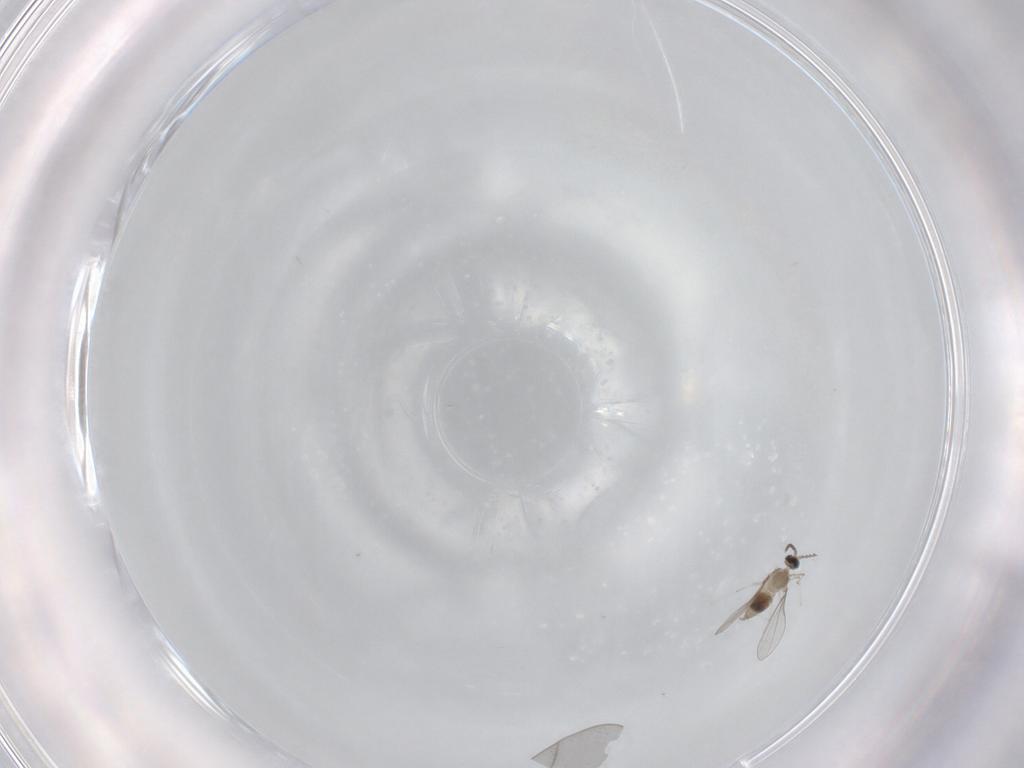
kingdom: Animalia
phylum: Arthropoda
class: Insecta
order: Diptera
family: Cecidomyiidae
